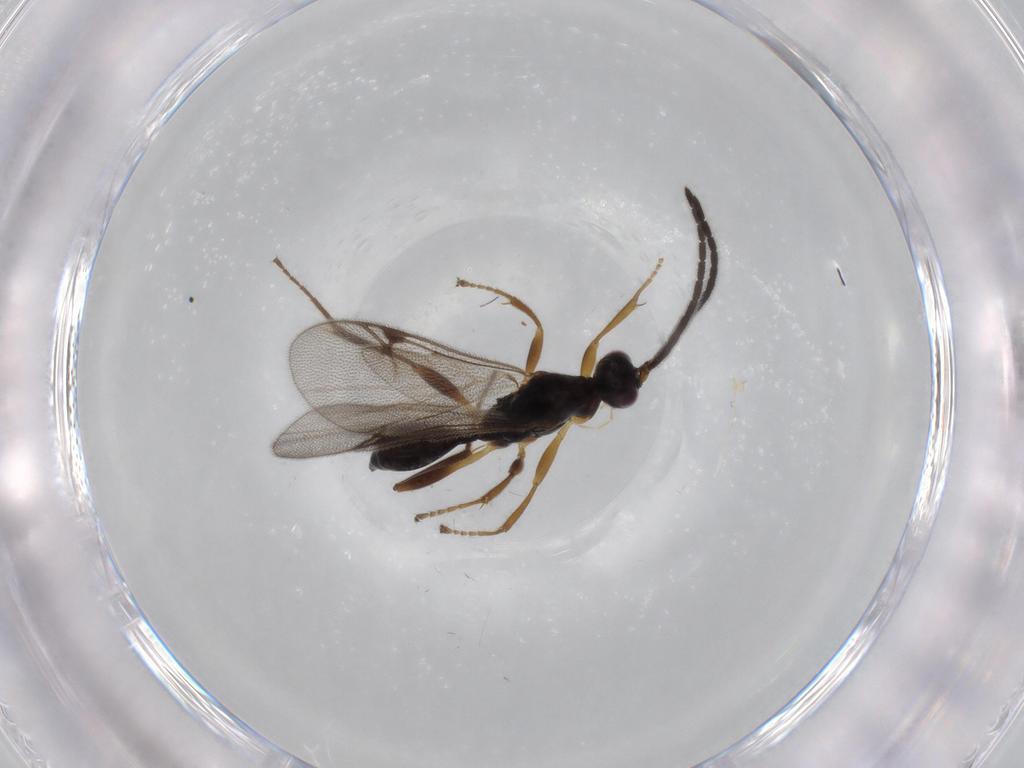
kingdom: Animalia
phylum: Arthropoda
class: Insecta
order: Hymenoptera
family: Proctotrupidae
